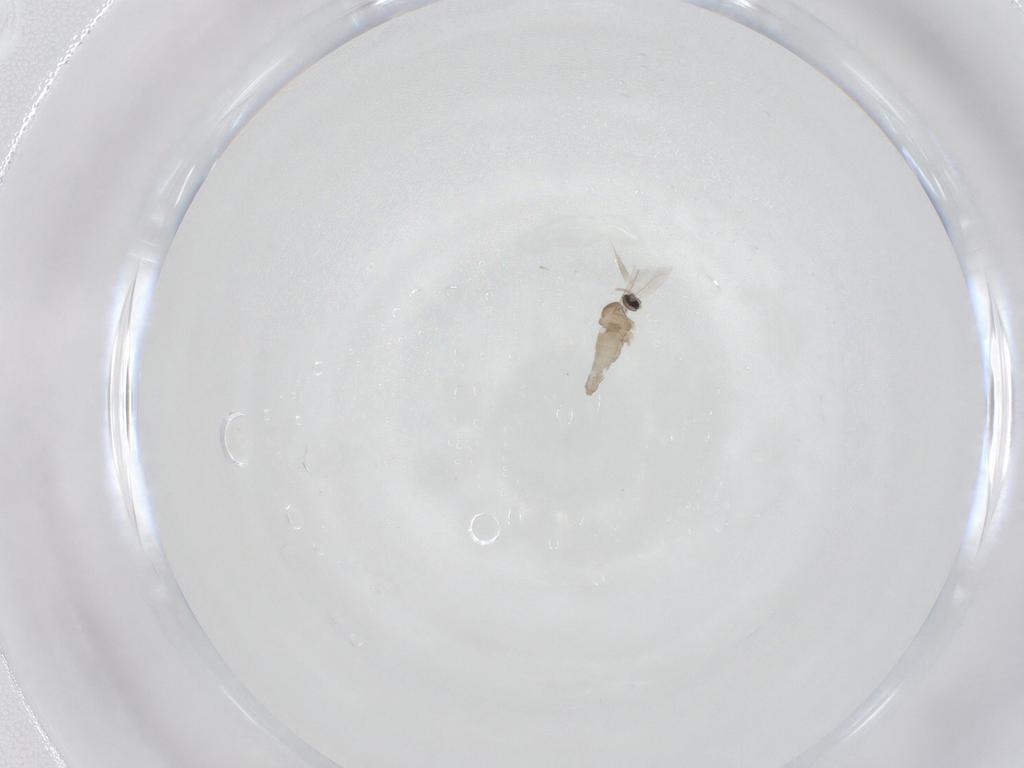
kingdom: Animalia
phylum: Arthropoda
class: Insecta
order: Diptera
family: Cecidomyiidae
